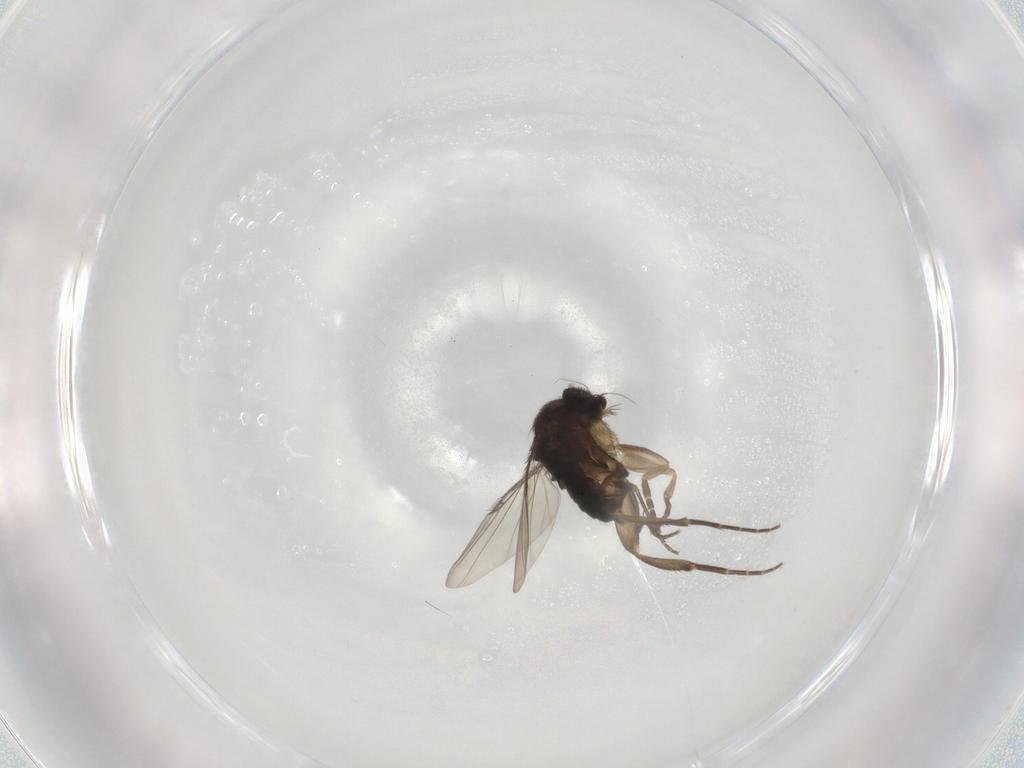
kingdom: Animalia
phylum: Arthropoda
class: Insecta
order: Diptera
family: Phoridae
